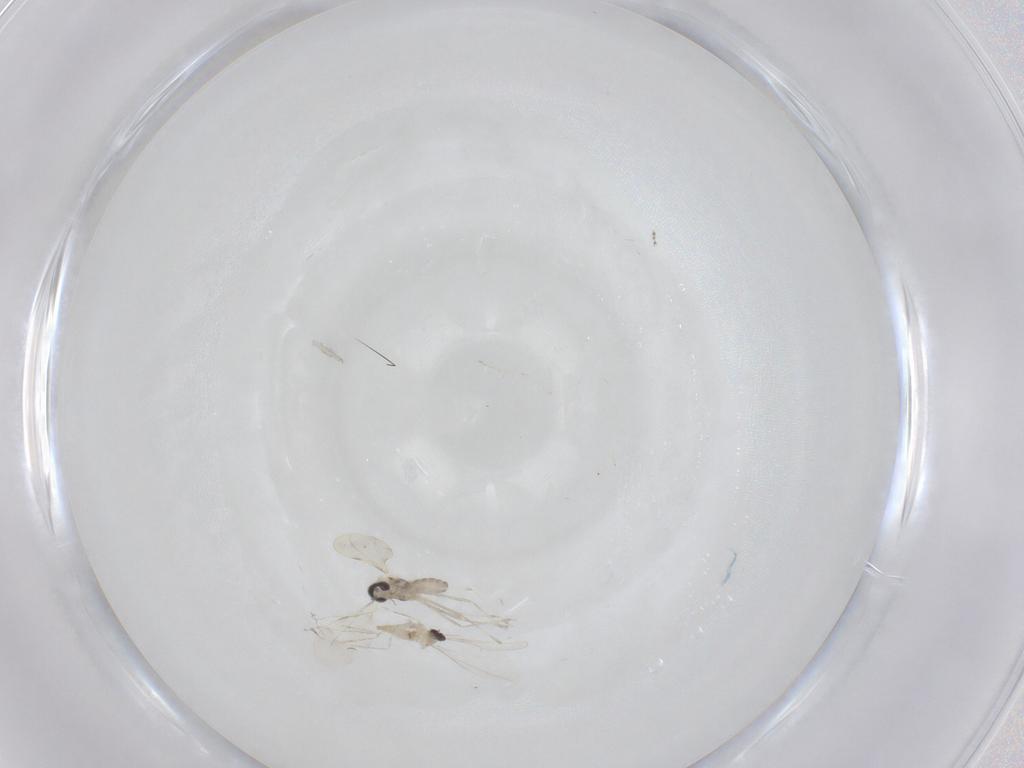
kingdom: Animalia
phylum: Arthropoda
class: Insecta
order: Diptera
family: Cecidomyiidae
